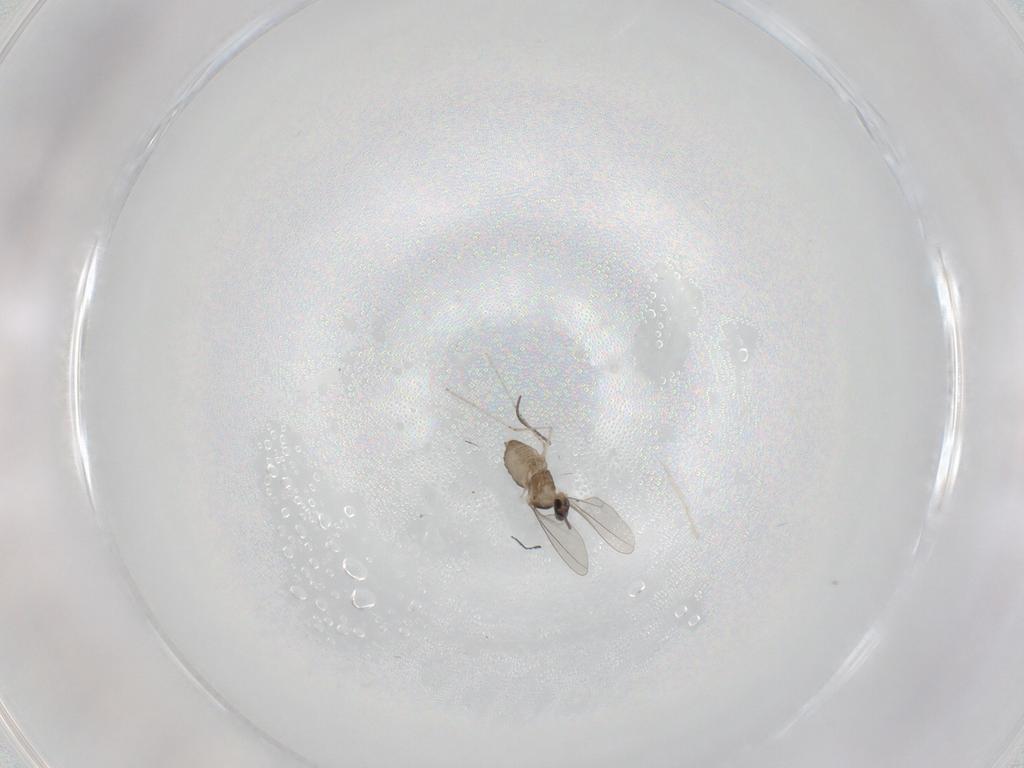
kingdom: Animalia
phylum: Arthropoda
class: Insecta
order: Diptera
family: Cecidomyiidae
